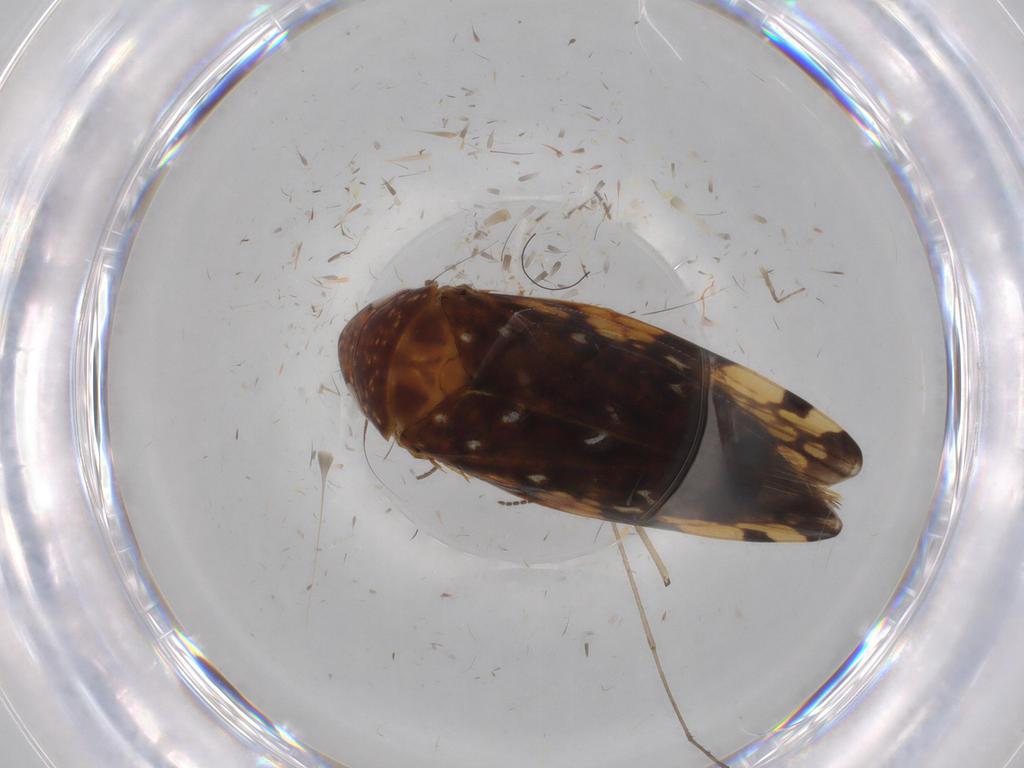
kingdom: Animalia
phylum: Arthropoda
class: Insecta
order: Hemiptera
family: Cicadellidae
